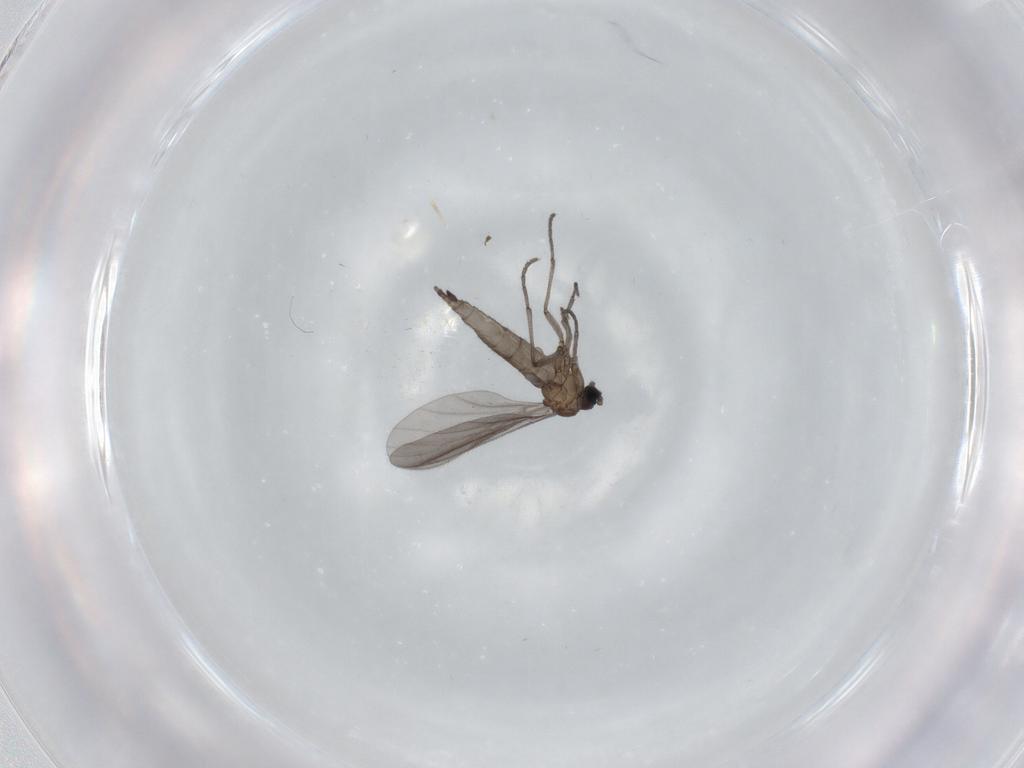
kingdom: Animalia
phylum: Arthropoda
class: Insecta
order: Diptera
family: Sciaridae
